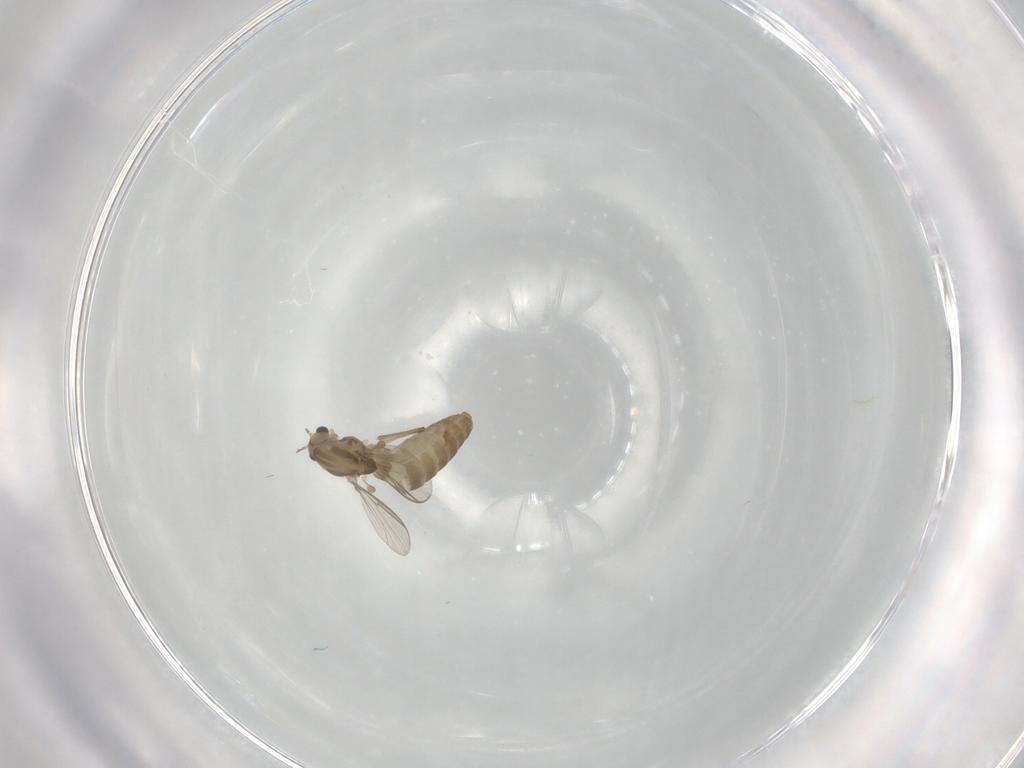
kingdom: Animalia
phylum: Arthropoda
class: Insecta
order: Diptera
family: Chironomidae
